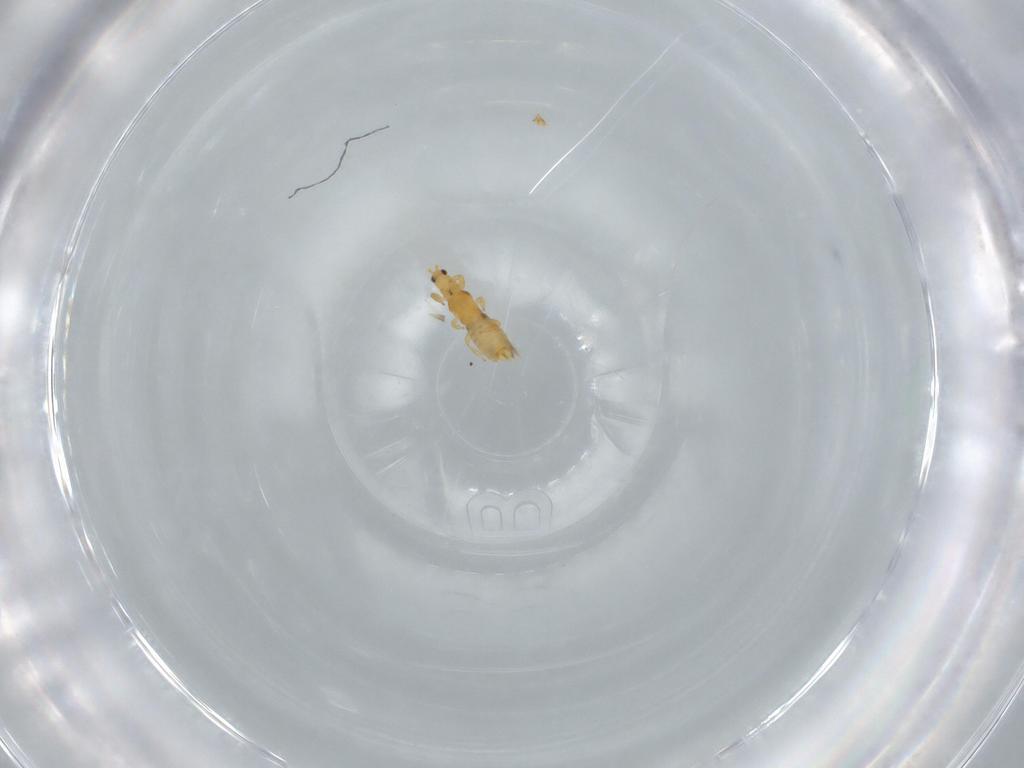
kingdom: Animalia
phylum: Arthropoda
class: Insecta
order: Thysanoptera
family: Thripidae
